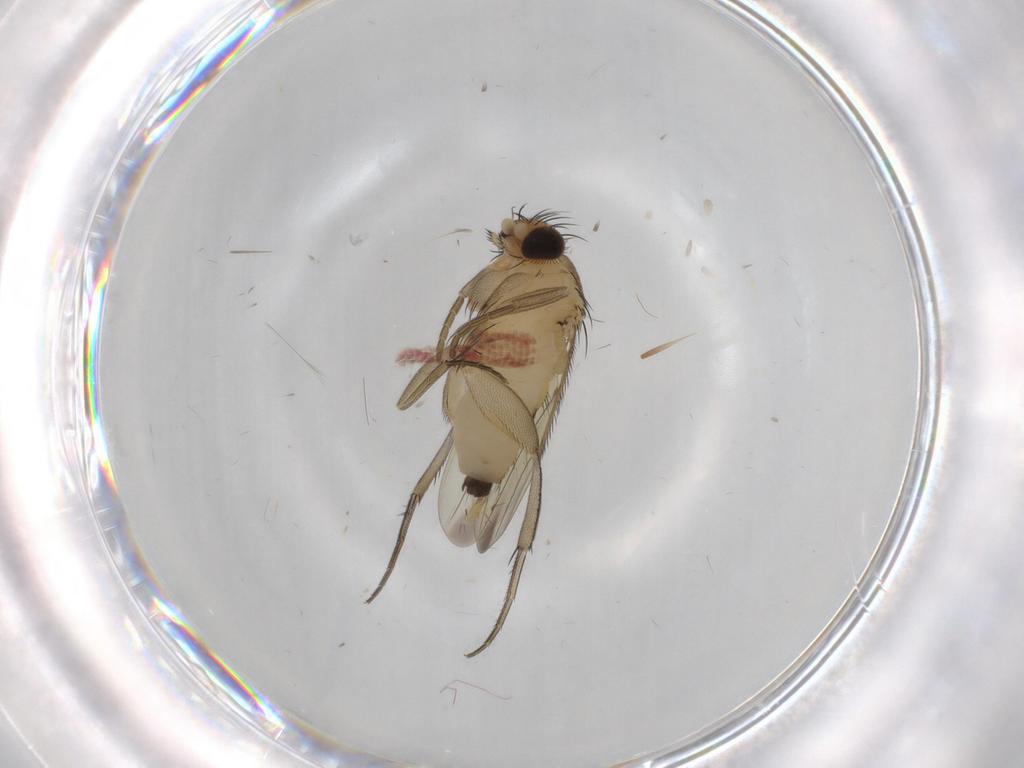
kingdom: Animalia
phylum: Arthropoda
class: Insecta
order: Diptera
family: Phoridae
